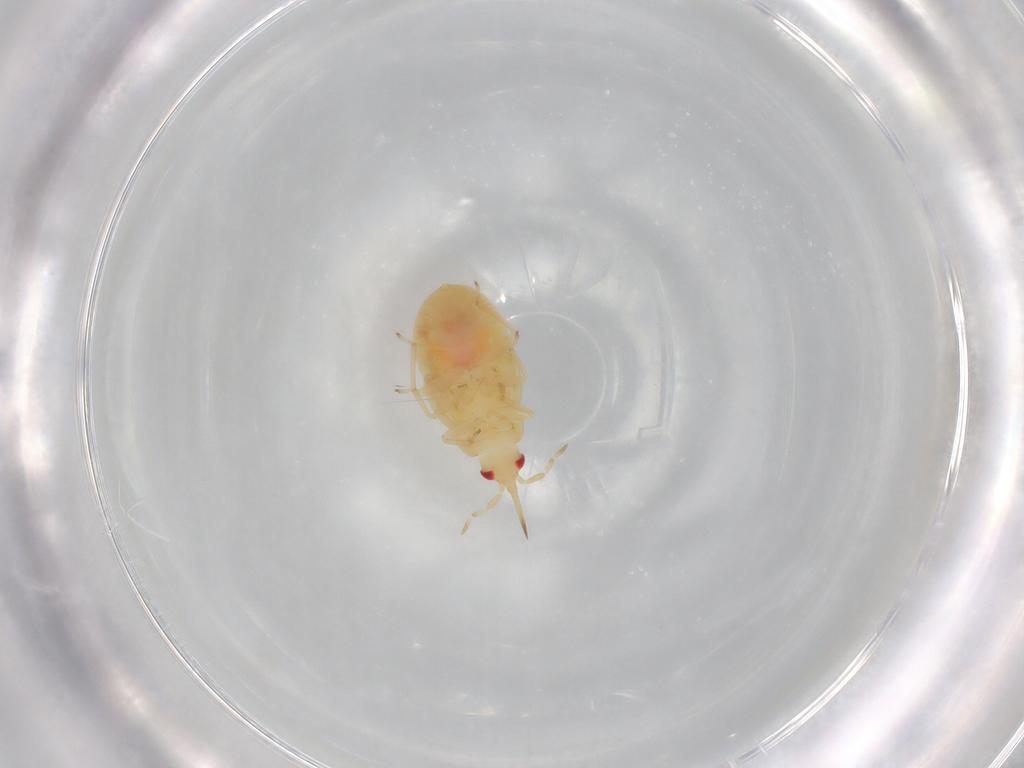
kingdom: Animalia
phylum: Arthropoda
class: Insecta
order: Hemiptera
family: Anthocoridae
